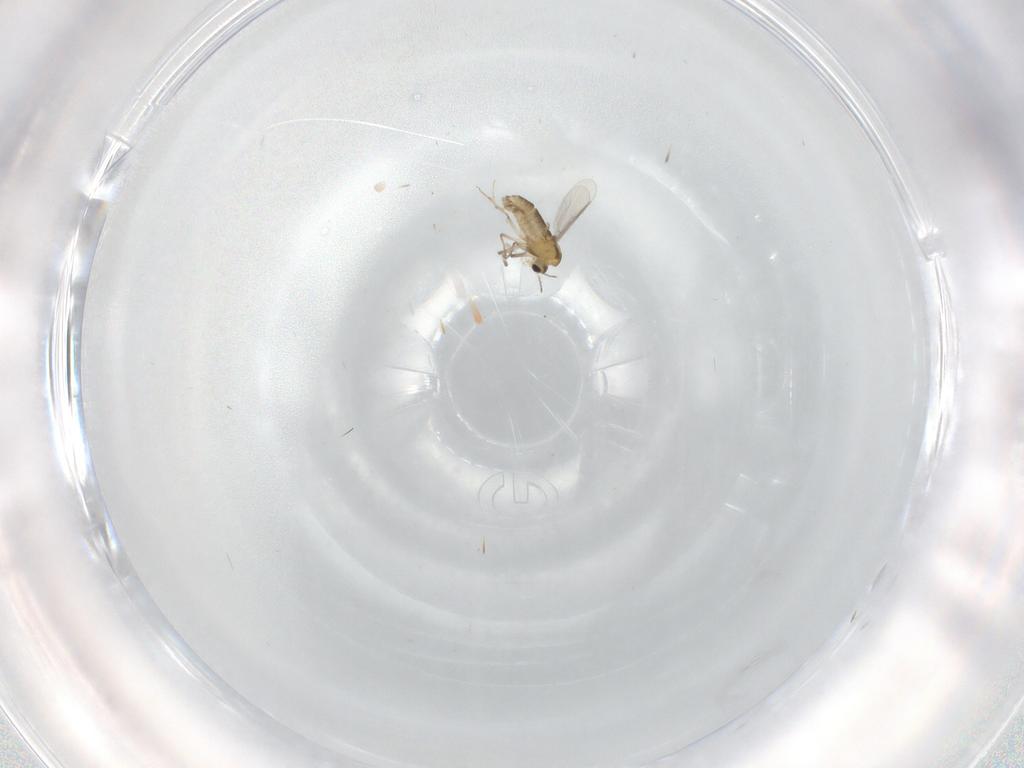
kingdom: Animalia
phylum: Arthropoda
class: Insecta
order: Diptera
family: Chironomidae
